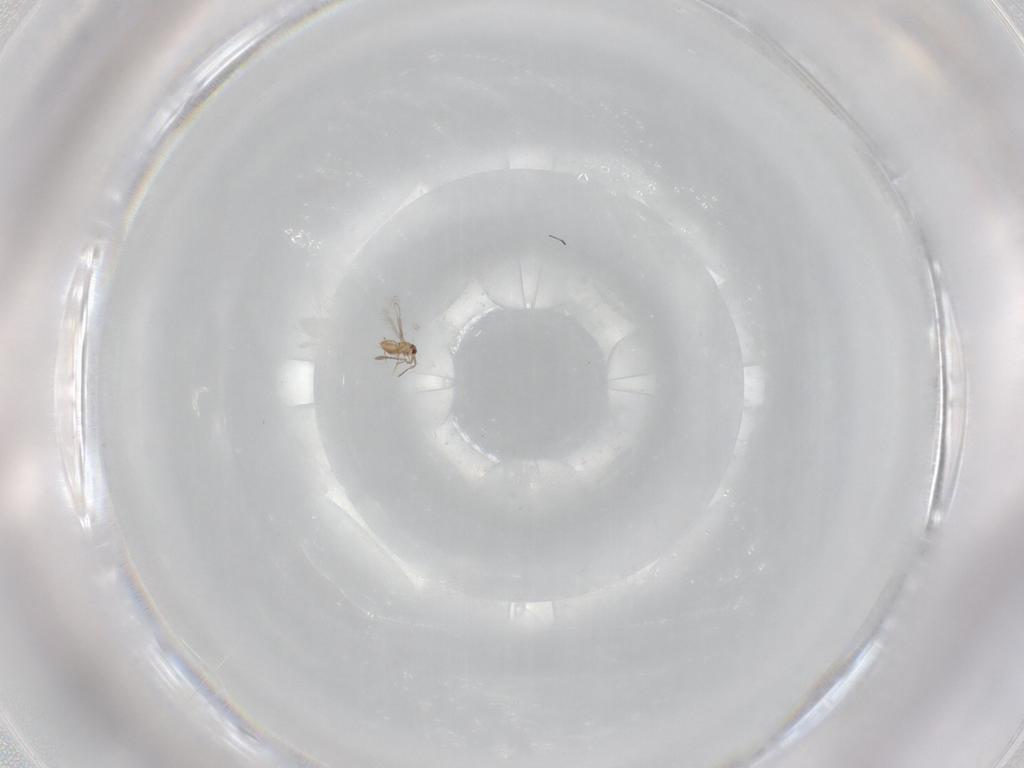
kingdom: Animalia
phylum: Arthropoda
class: Insecta
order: Hymenoptera
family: Mymaridae
